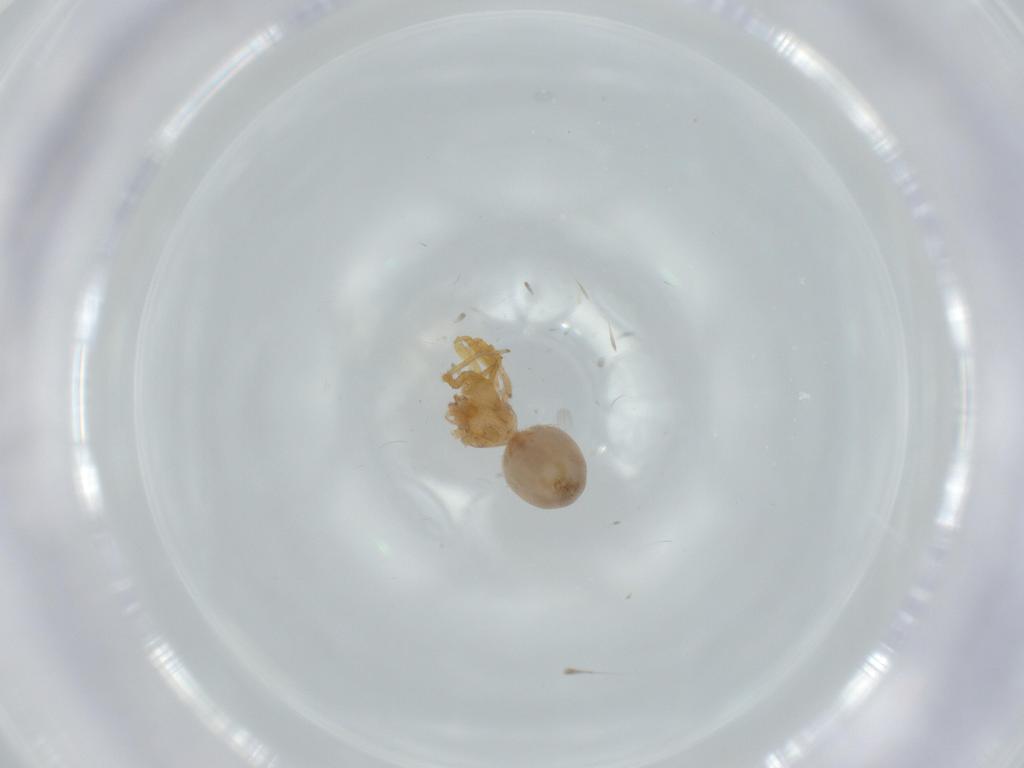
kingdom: Animalia
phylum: Arthropoda
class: Arachnida
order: Araneae
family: Oonopidae
